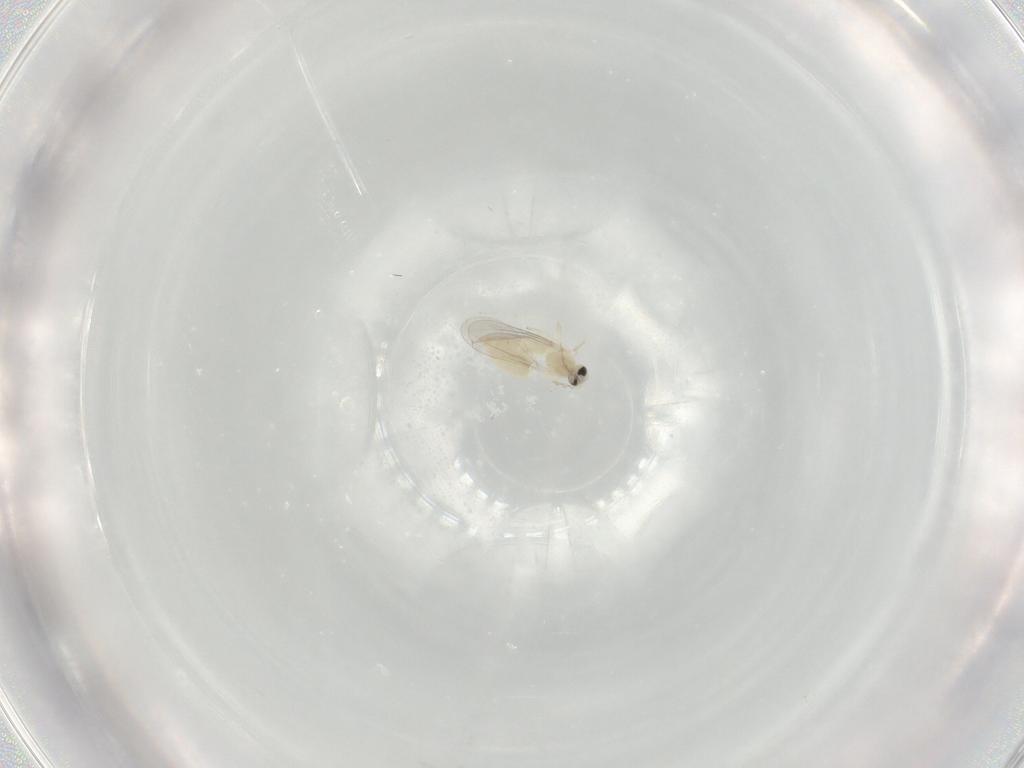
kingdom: Animalia
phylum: Arthropoda
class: Insecta
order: Diptera
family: Cecidomyiidae
